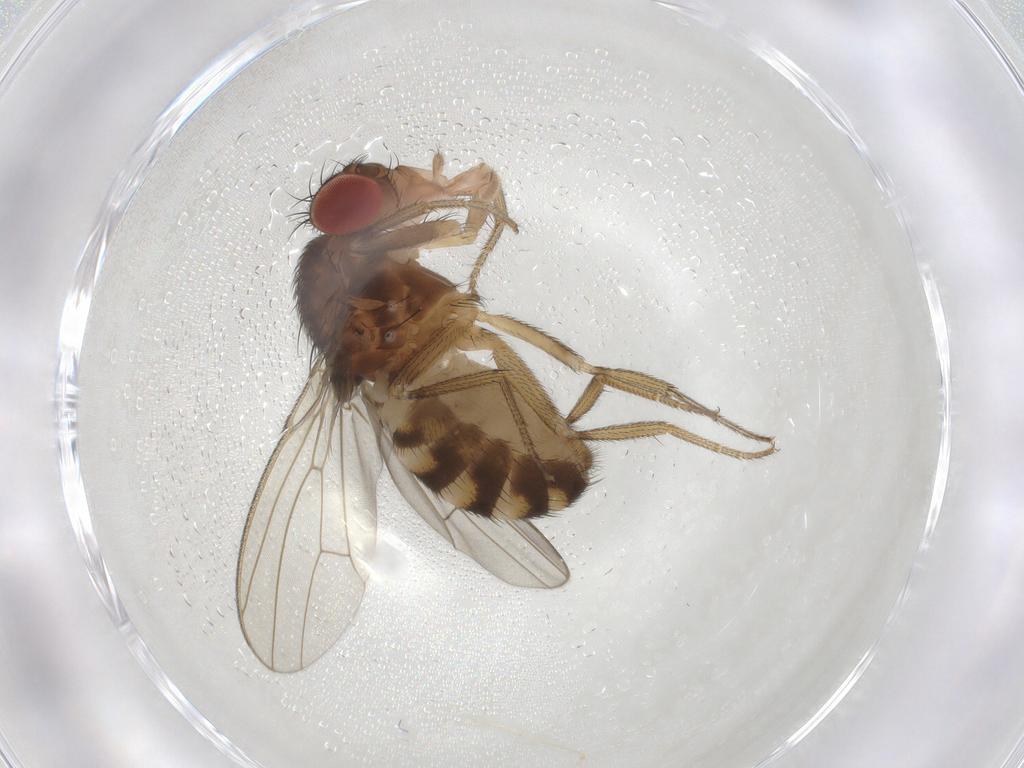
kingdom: Animalia
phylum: Arthropoda
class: Insecta
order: Diptera
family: Drosophilidae
